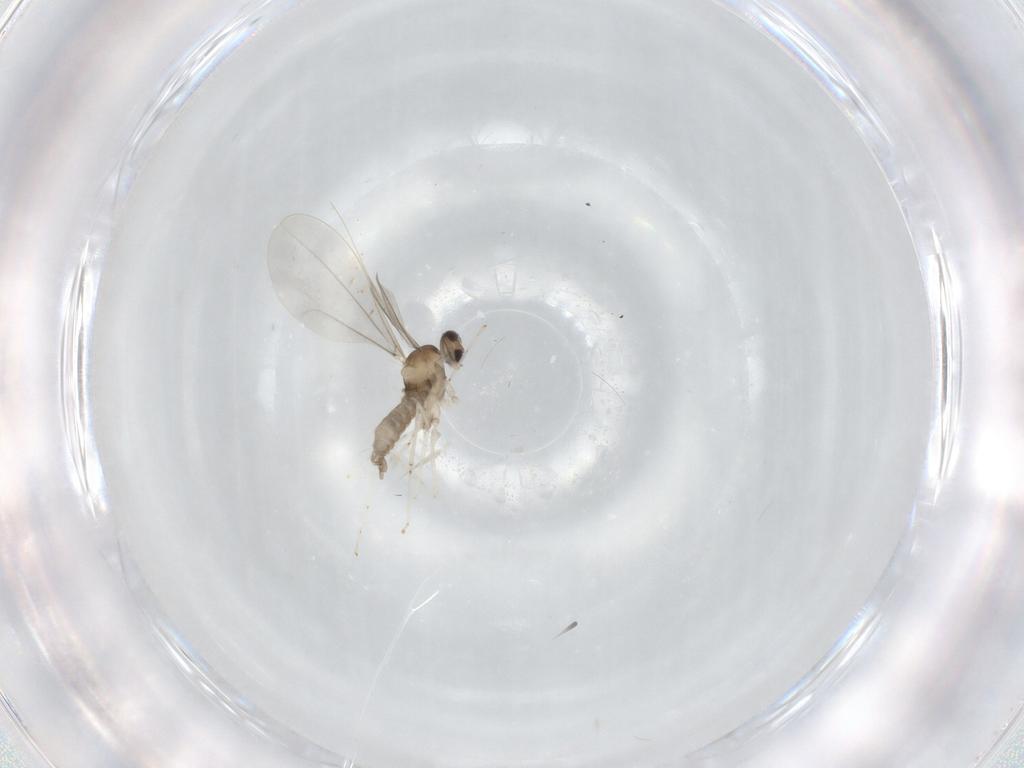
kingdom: Animalia
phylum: Arthropoda
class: Insecta
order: Diptera
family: Cecidomyiidae
